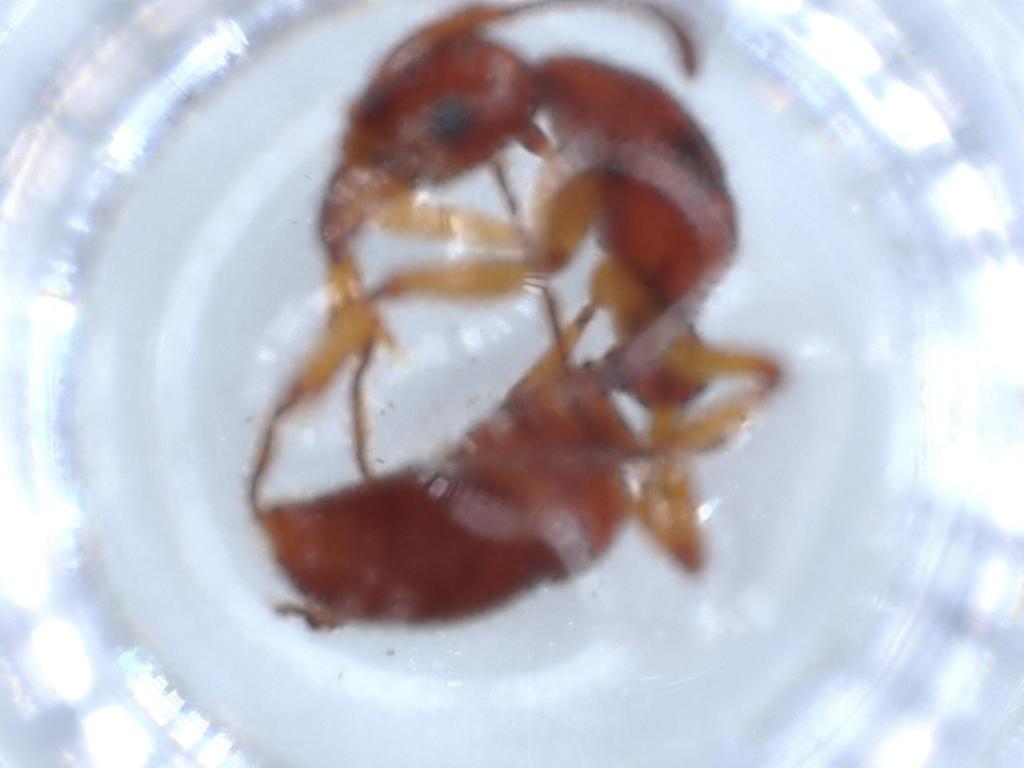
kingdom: Animalia
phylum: Arthropoda
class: Insecta
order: Hymenoptera
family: Formicidae
